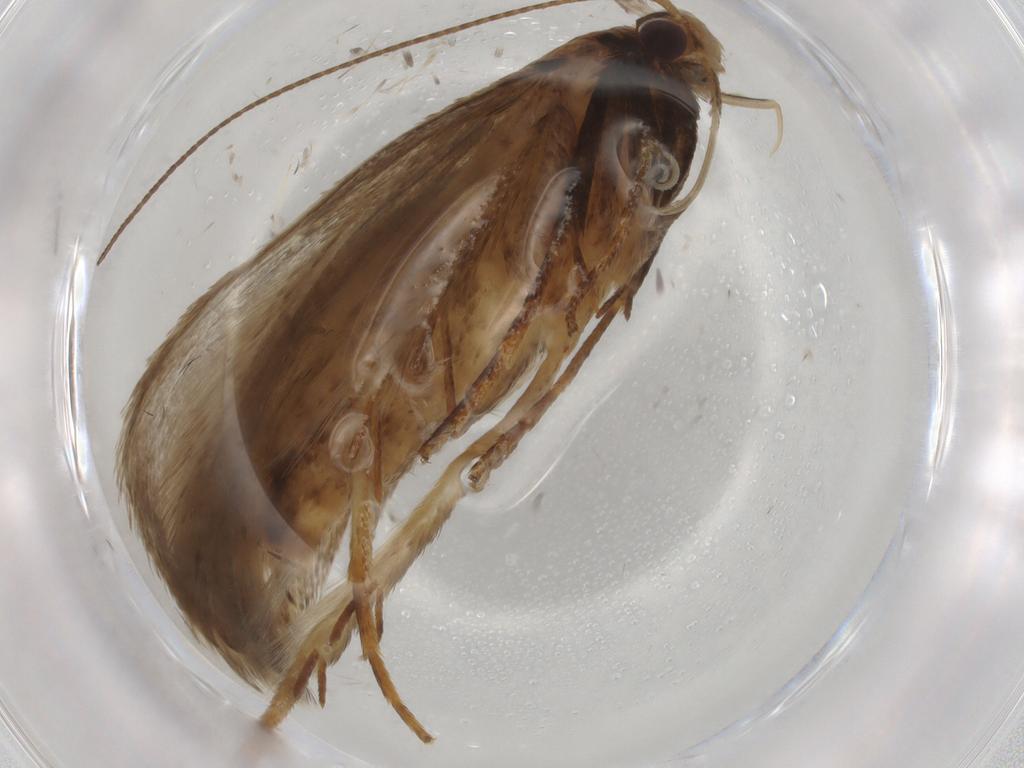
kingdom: Animalia
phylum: Arthropoda
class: Insecta
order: Lepidoptera
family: Gelechiidae
